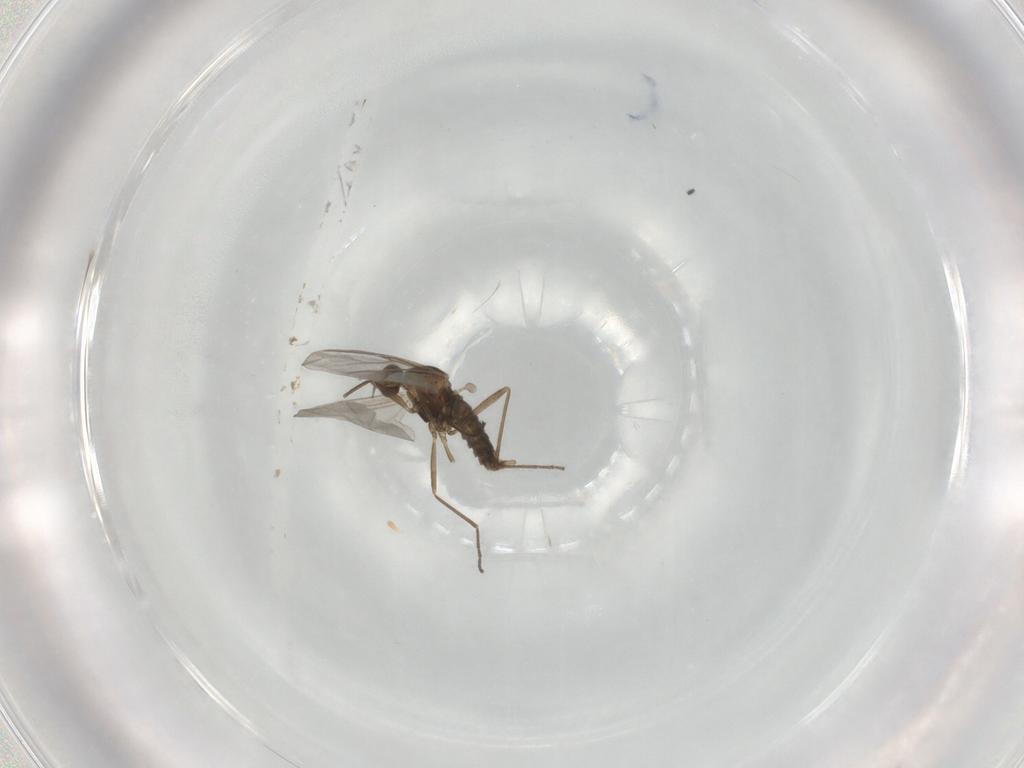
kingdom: Animalia
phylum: Arthropoda
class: Insecta
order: Diptera
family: Cecidomyiidae
